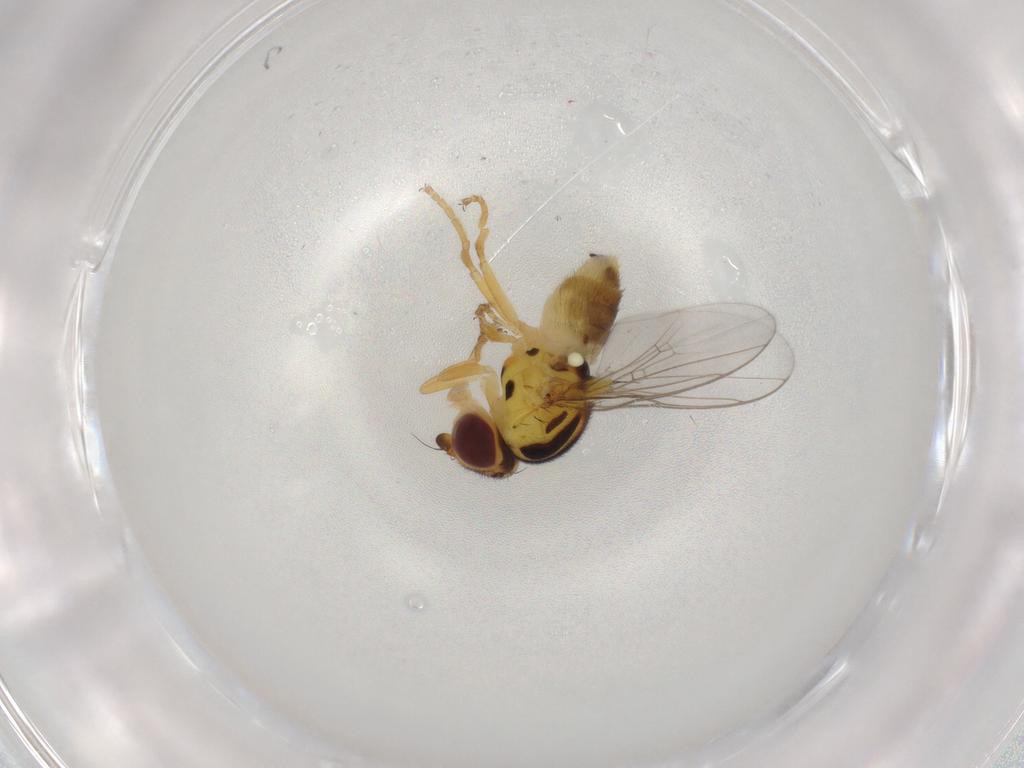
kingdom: Animalia
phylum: Arthropoda
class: Insecta
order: Diptera
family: Chloropidae
